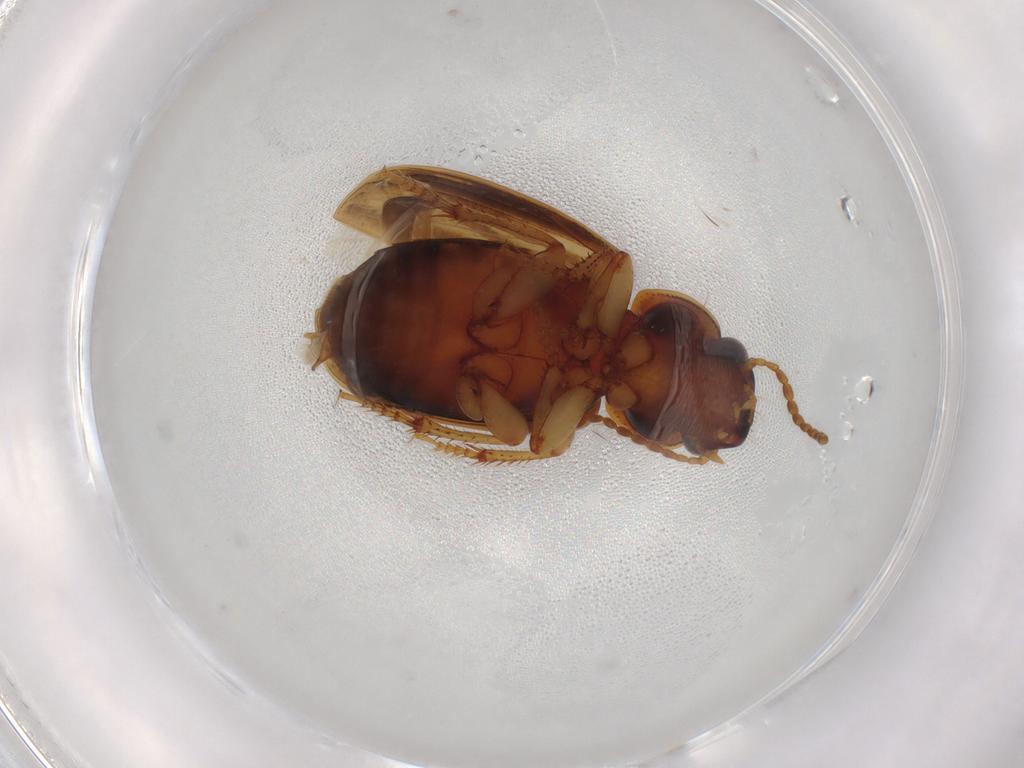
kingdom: Animalia
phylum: Arthropoda
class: Insecta
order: Coleoptera
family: Carabidae
